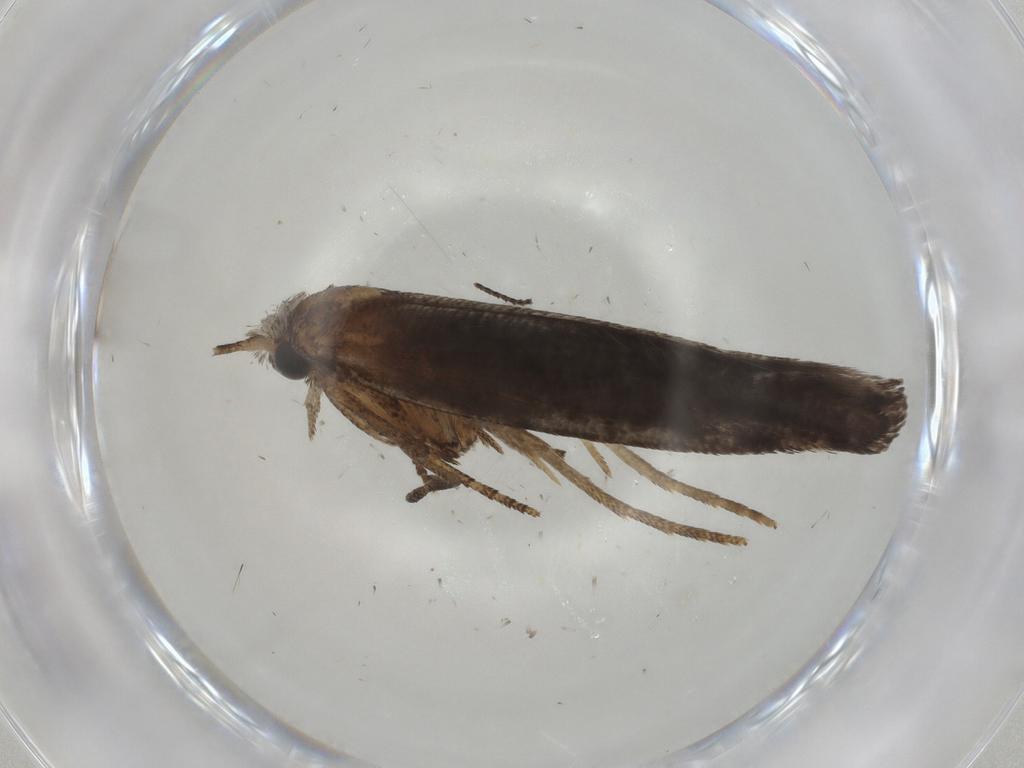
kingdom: Animalia
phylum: Arthropoda
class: Insecta
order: Lepidoptera
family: Plutellidae
